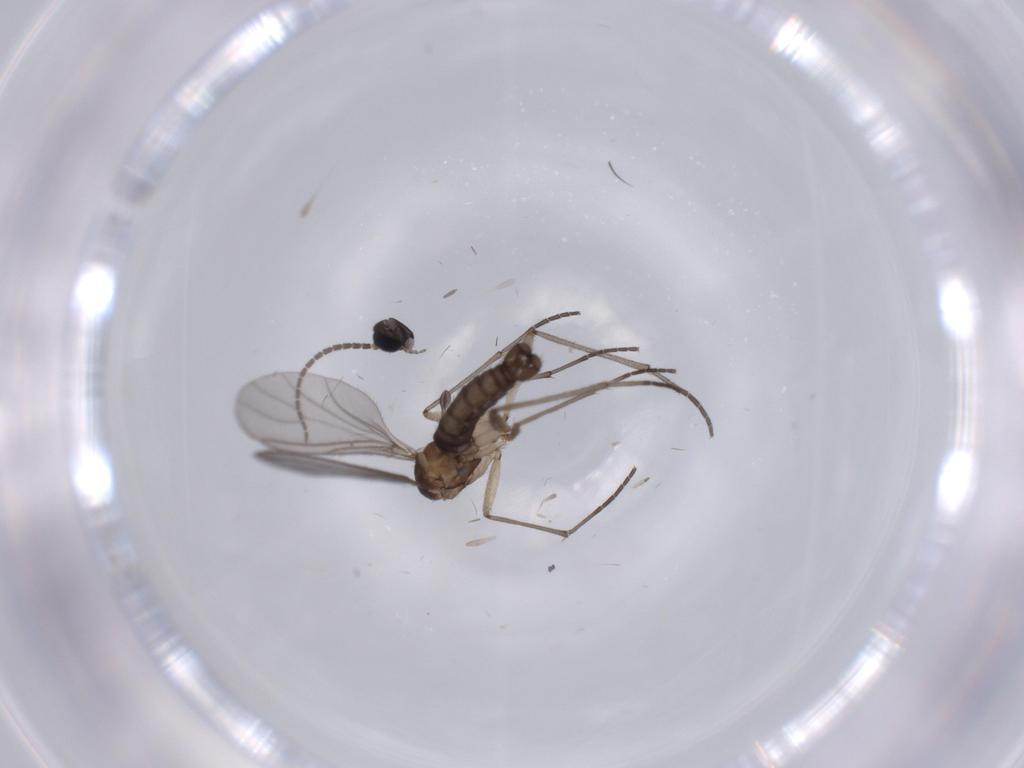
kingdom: Animalia
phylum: Arthropoda
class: Insecta
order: Diptera
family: Sciaridae
